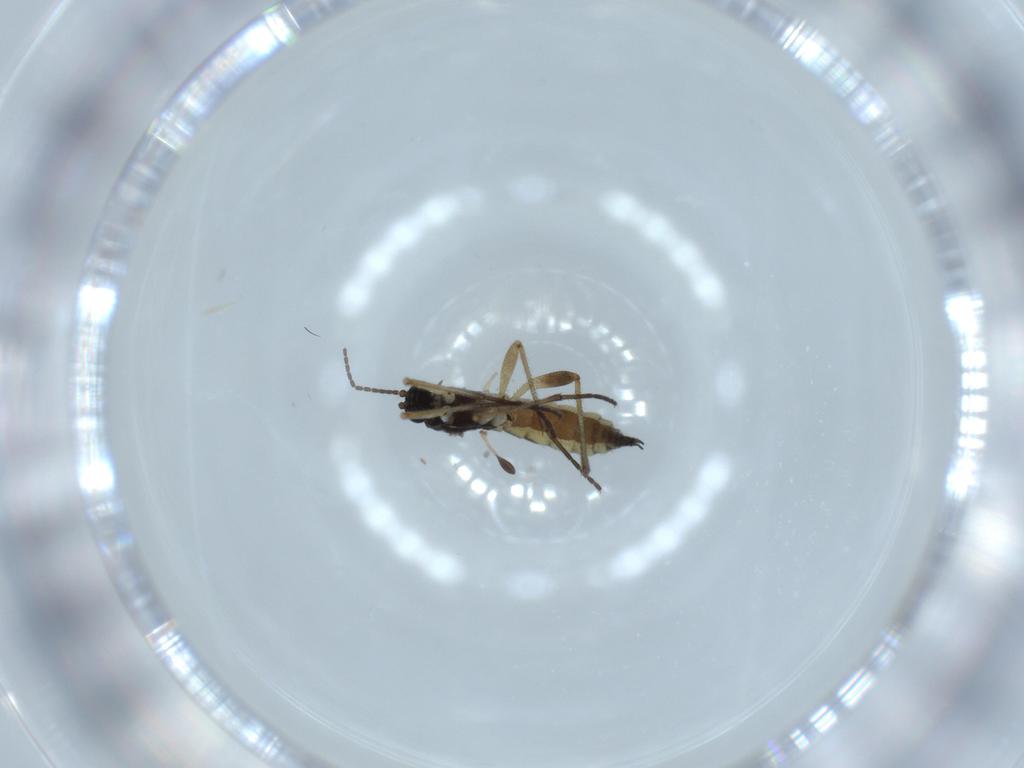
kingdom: Animalia
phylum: Arthropoda
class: Insecta
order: Diptera
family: Sciaridae
